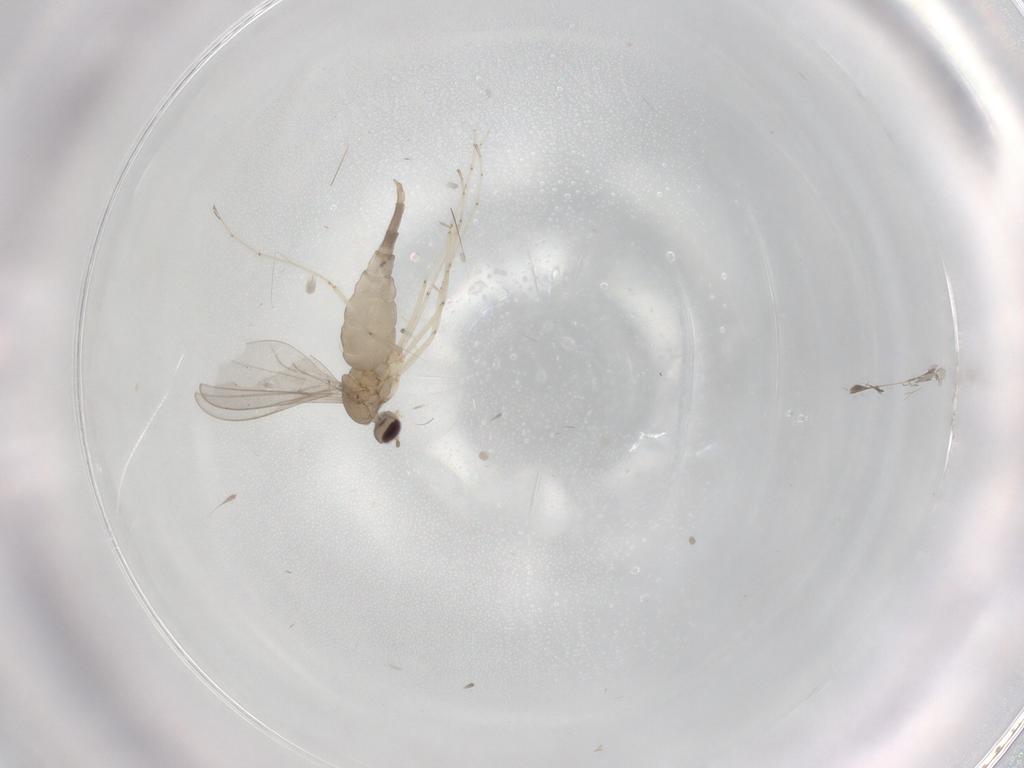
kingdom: Animalia
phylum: Arthropoda
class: Insecta
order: Diptera
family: Cecidomyiidae
